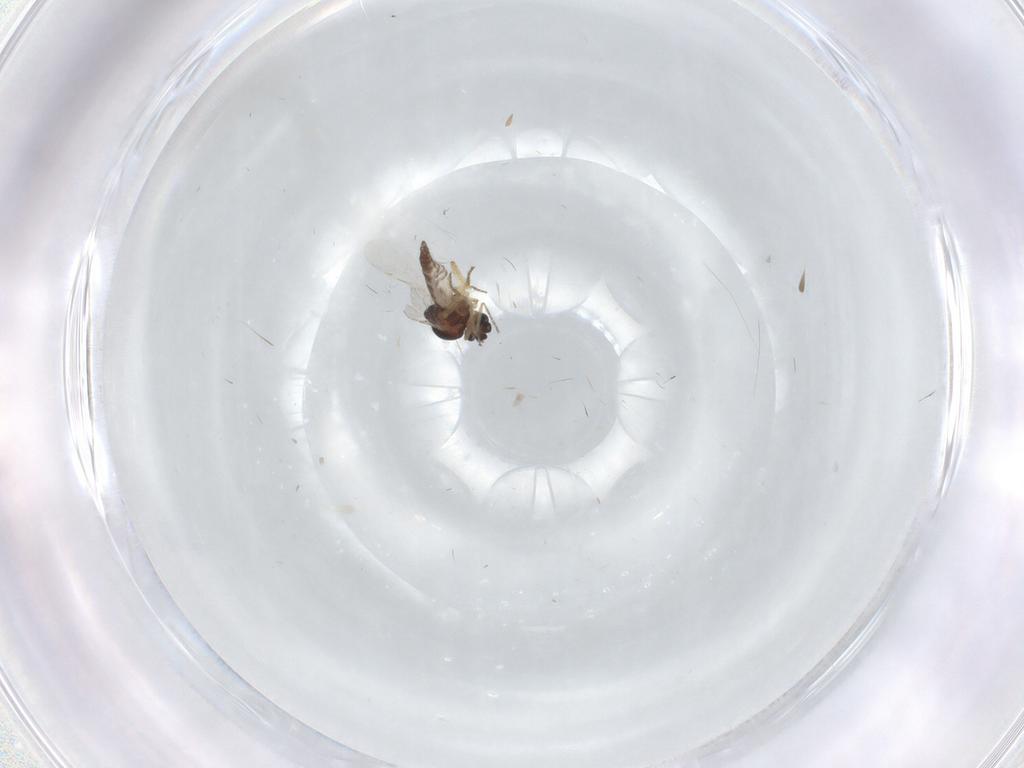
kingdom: Animalia
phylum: Arthropoda
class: Insecta
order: Diptera
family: Ceratopogonidae
